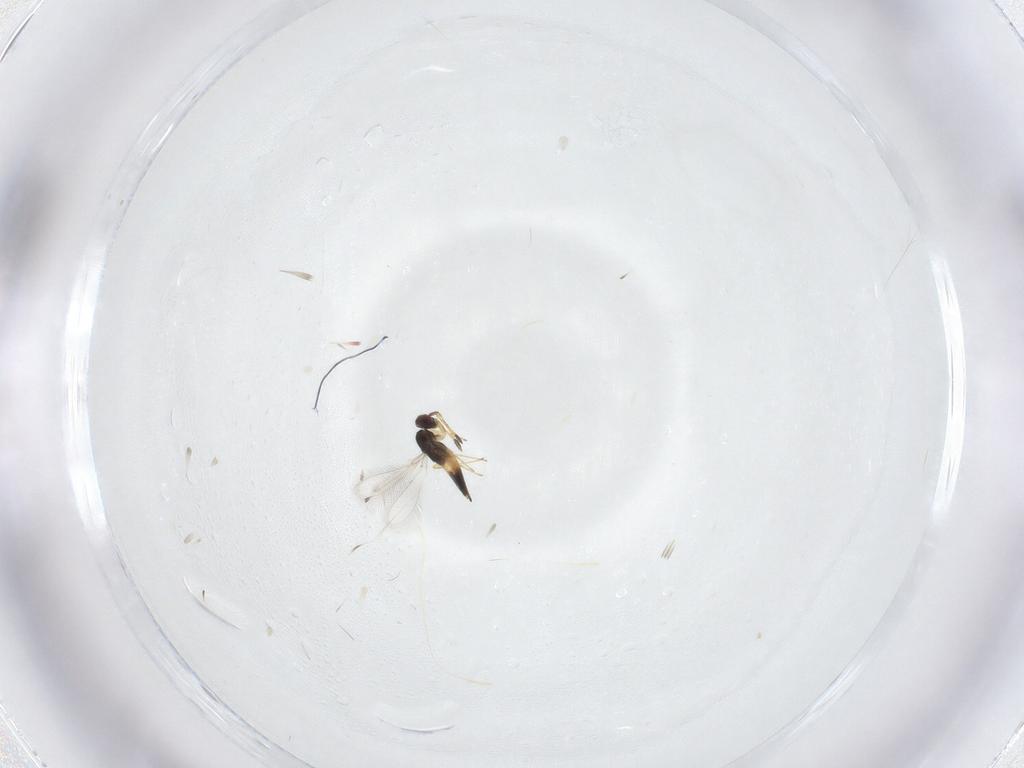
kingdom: Animalia
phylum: Arthropoda
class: Insecta
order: Hymenoptera
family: Mymaridae
